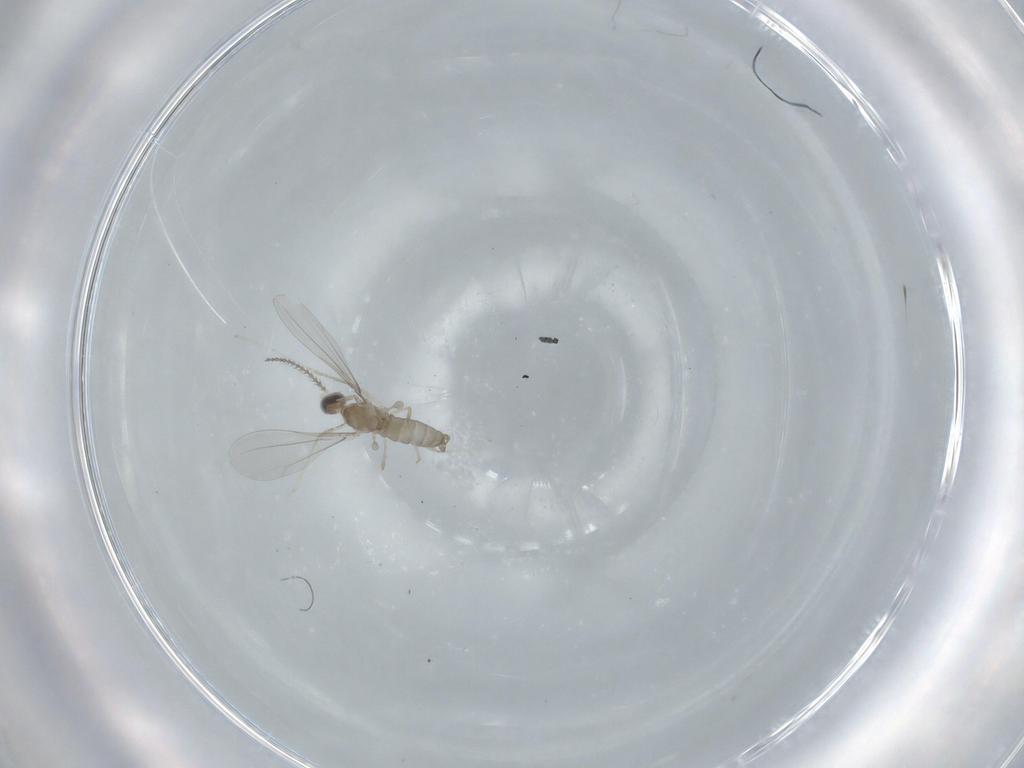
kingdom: Animalia
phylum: Arthropoda
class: Insecta
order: Diptera
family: Cecidomyiidae
